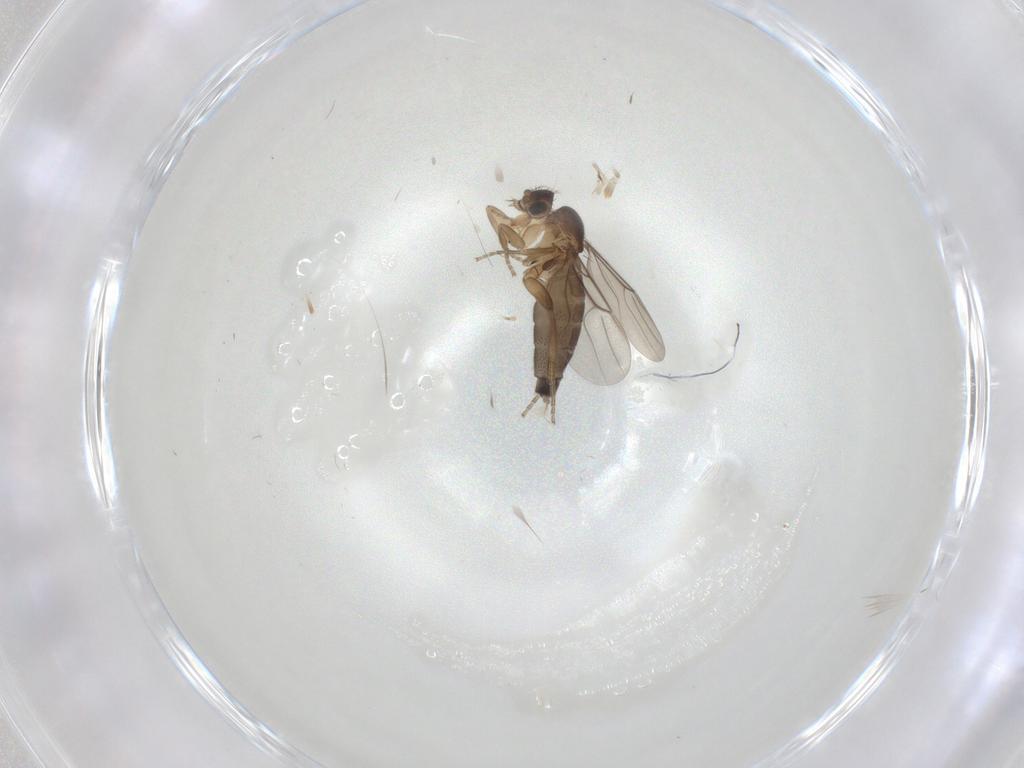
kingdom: Animalia
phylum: Arthropoda
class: Insecta
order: Diptera
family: Phoridae
